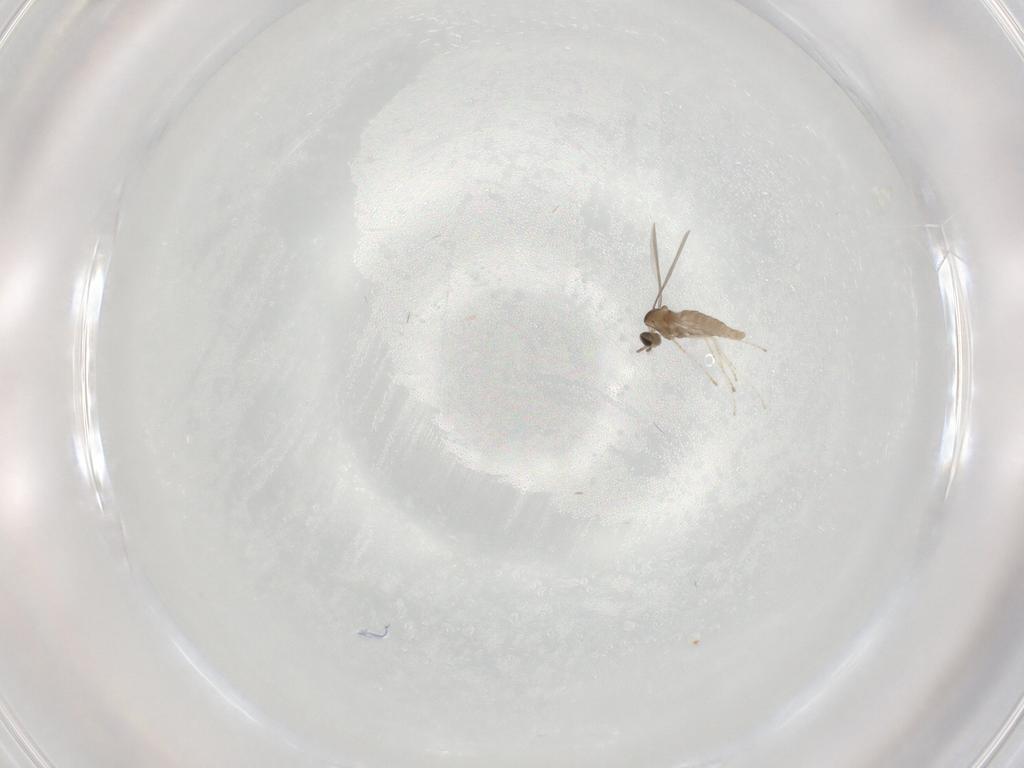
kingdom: Animalia
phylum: Arthropoda
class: Insecta
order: Diptera
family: Cecidomyiidae
